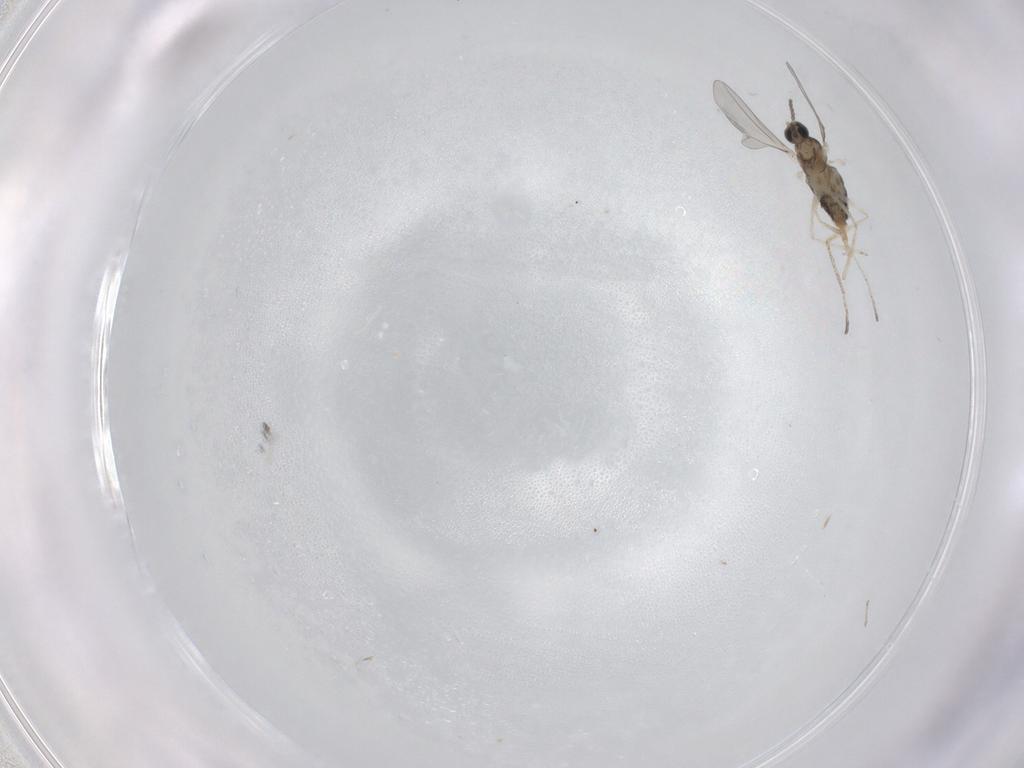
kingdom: Animalia
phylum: Arthropoda
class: Insecta
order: Diptera
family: Cecidomyiidae
